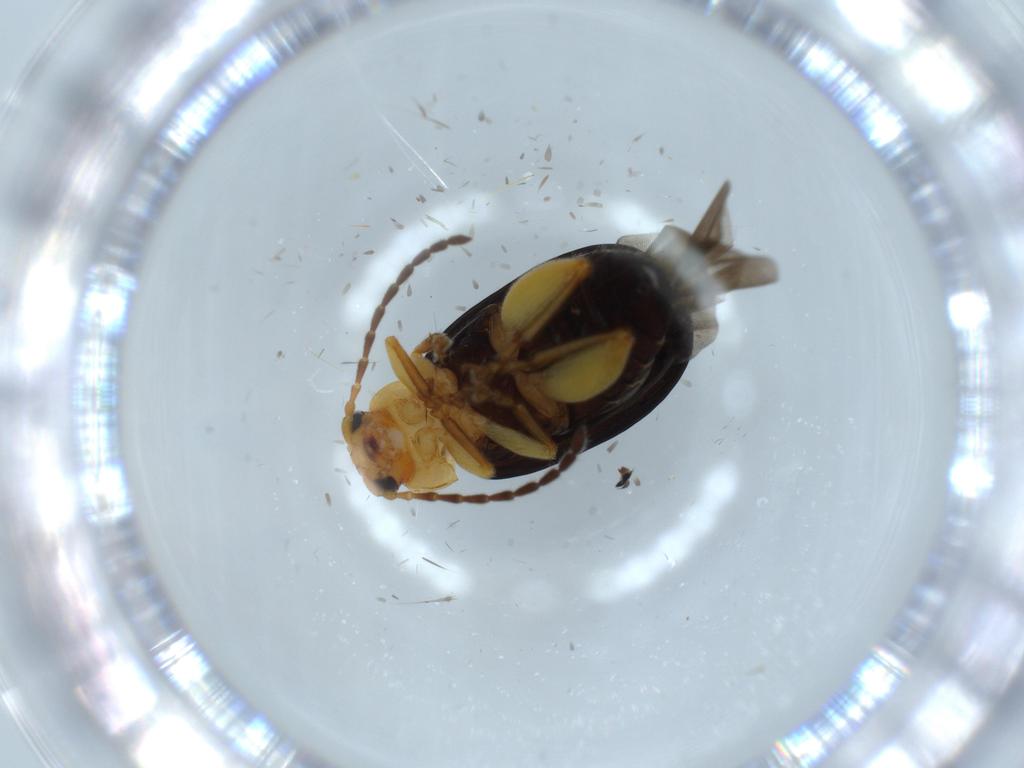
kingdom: Animalia
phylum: Arthropoda
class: Insecta
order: Coleoptera
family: Chrysomelidae
